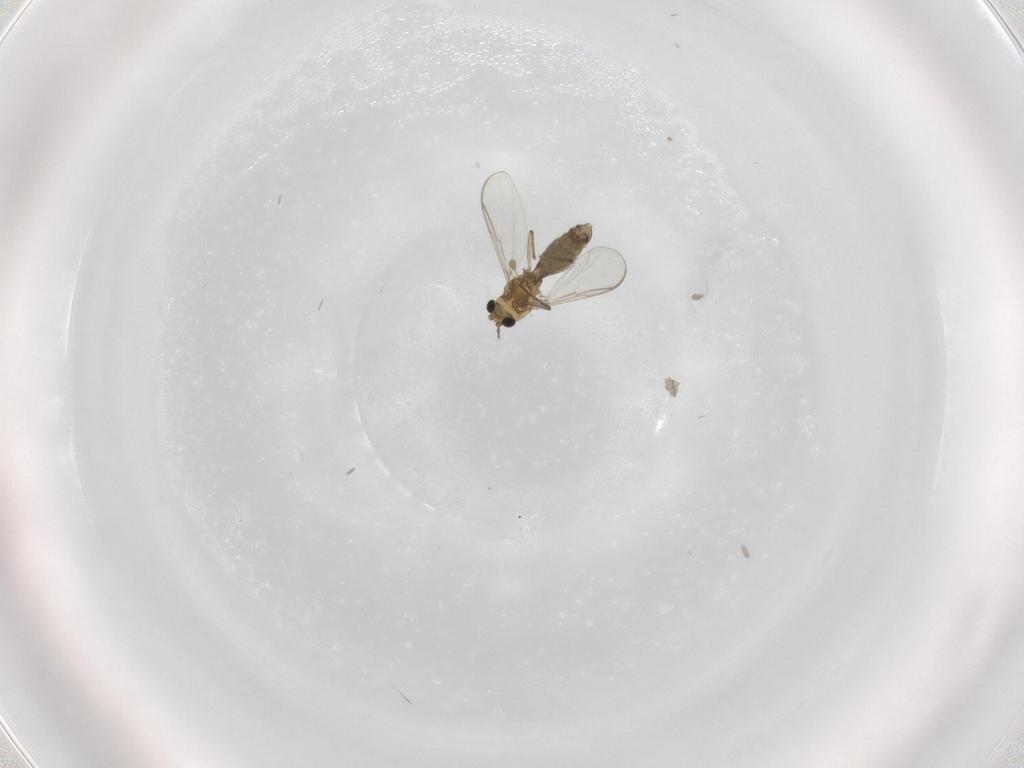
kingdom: Animalia
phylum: Arthropoda
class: Insecta
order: Diptera
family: Chironomidae
